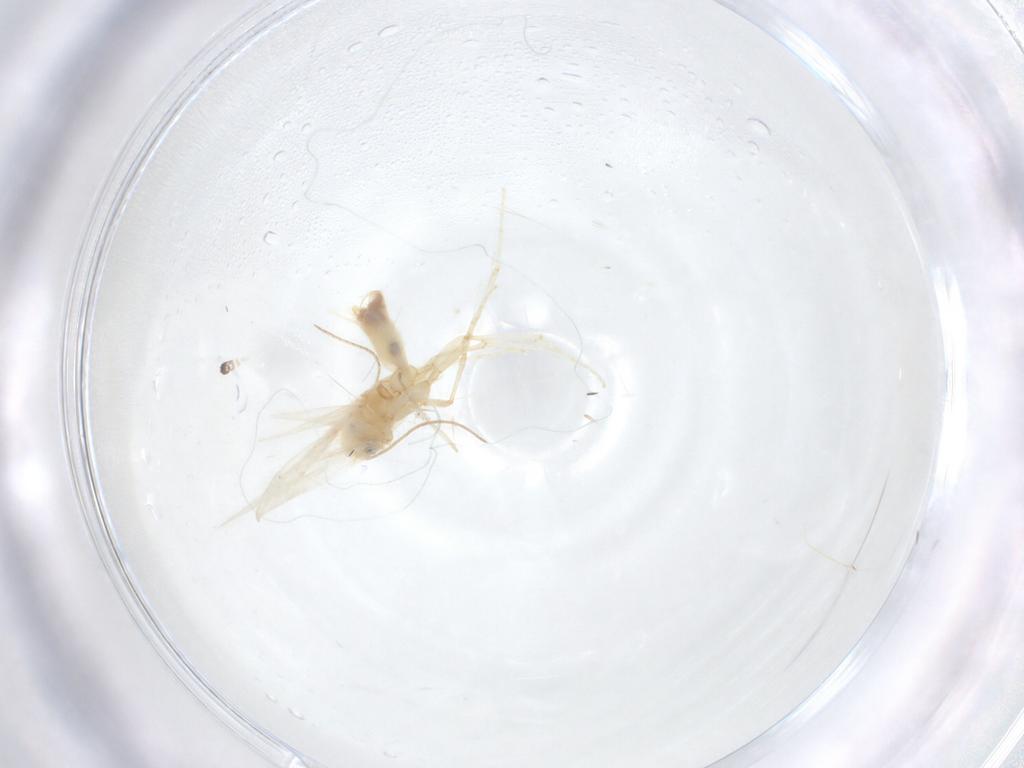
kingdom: Animalia
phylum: Arthropoda
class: Insecta
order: Lepidoptera
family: Tischeriidae
